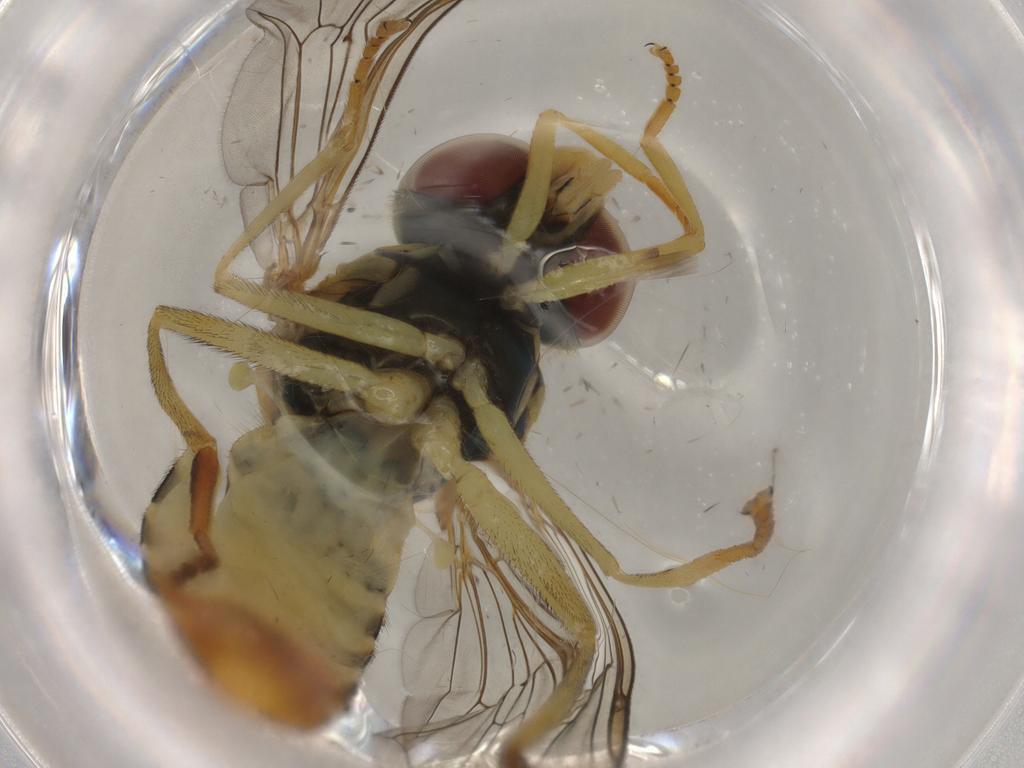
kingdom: Animalia
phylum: Arthropoda
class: Insecta
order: Diptera
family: Syrphidae
